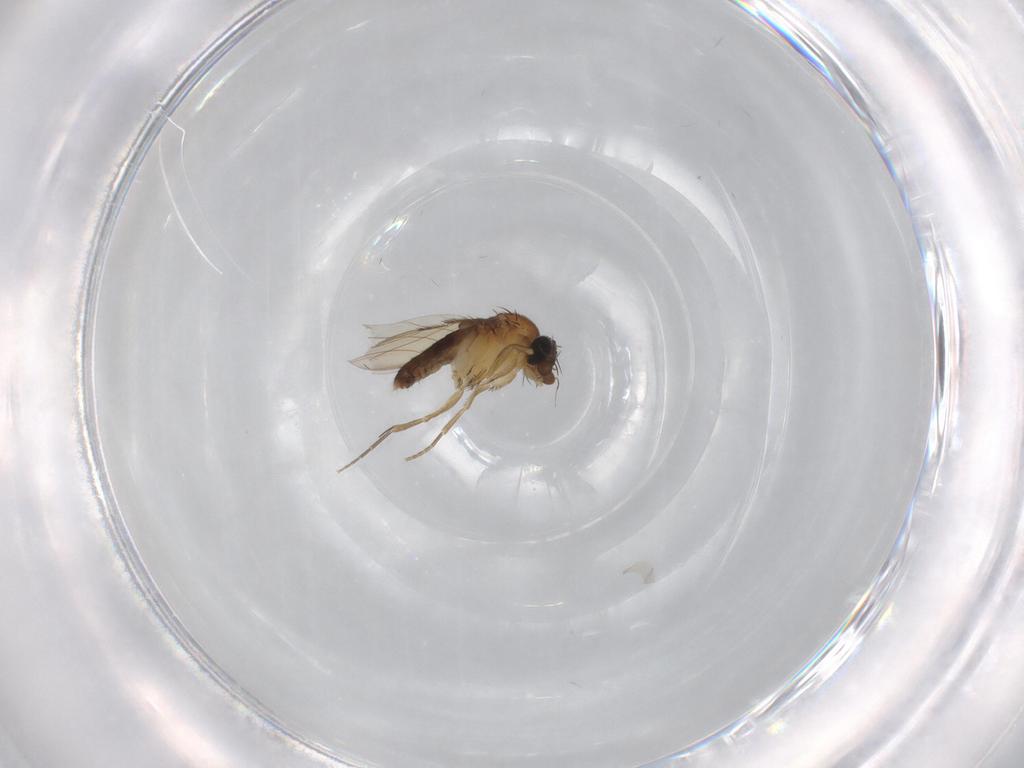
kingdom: Animalia
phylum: Arthropoda
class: Insecta
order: Diptera
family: Phoridae
